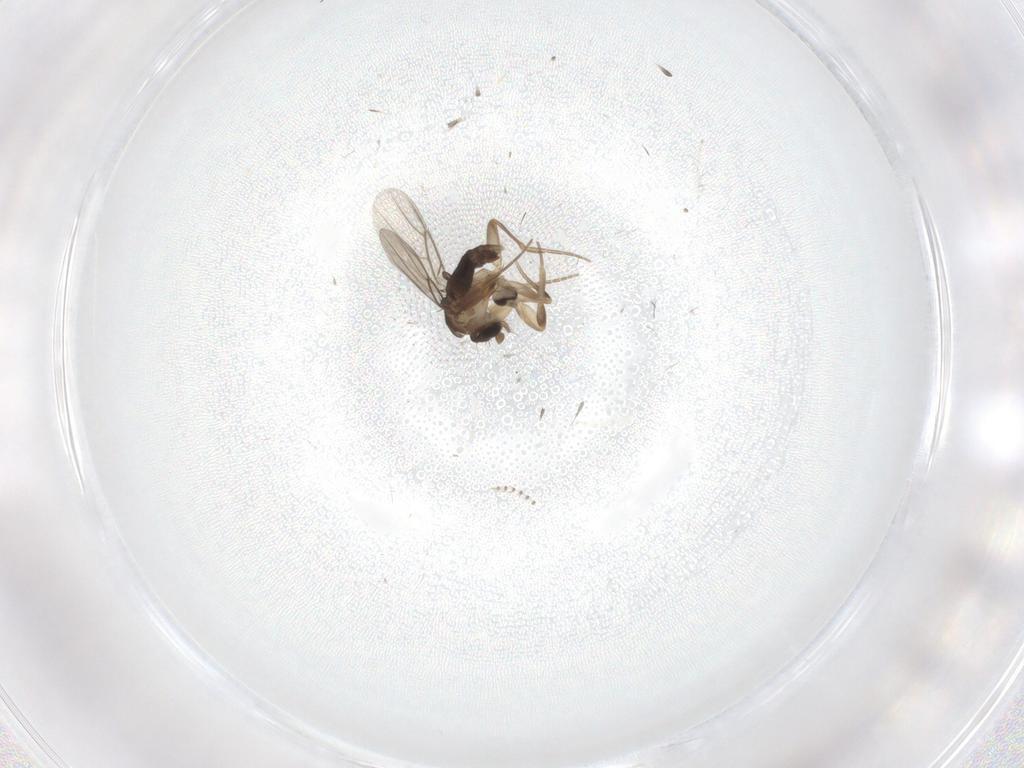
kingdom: Animalia
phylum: Arthropoda
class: Insecta
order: Diptera
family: Phoridae
